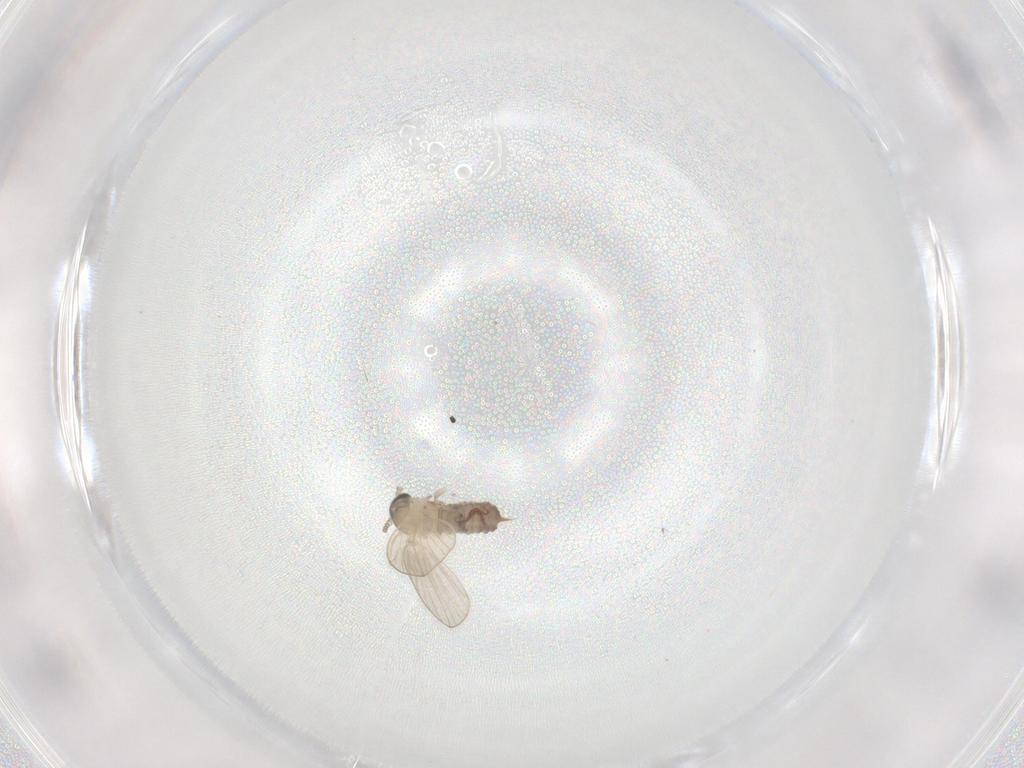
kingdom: Animalia
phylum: Arthropoda
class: Insecta
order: Diptera
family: Sphaeroceridae
